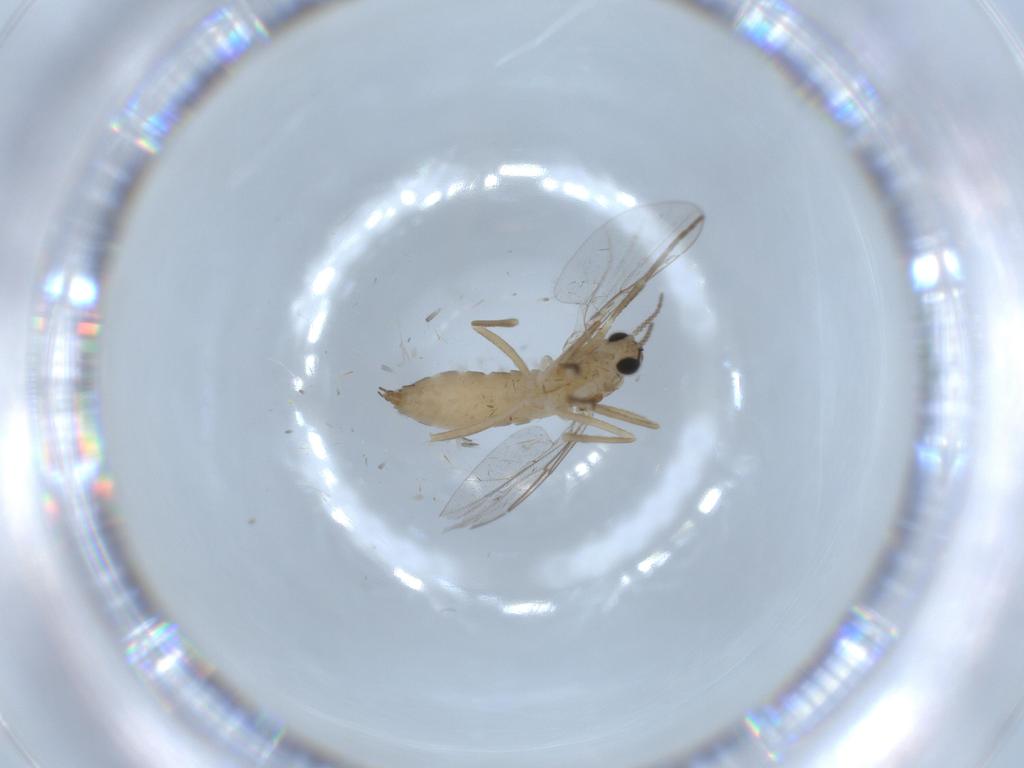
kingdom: Animalia
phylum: Arthropoda
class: Insecta
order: Diptera
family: Cecidomyiidae
